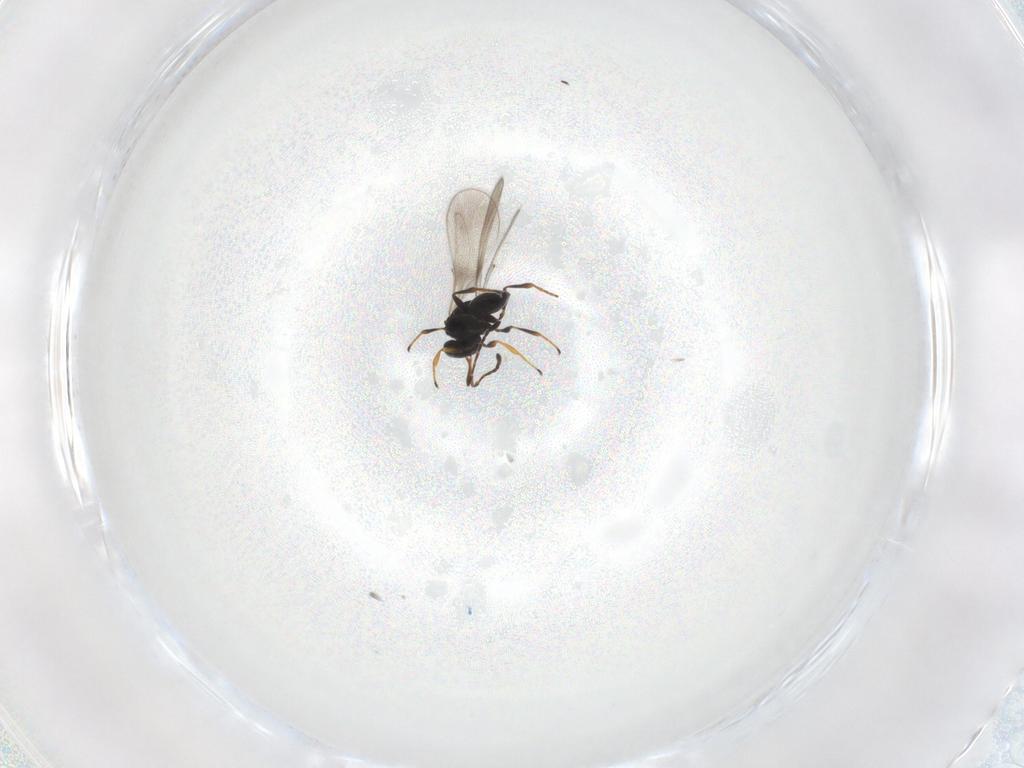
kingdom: Animalia
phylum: Arthropoda
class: Insecta
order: Hymenoptera
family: Platygastridae
